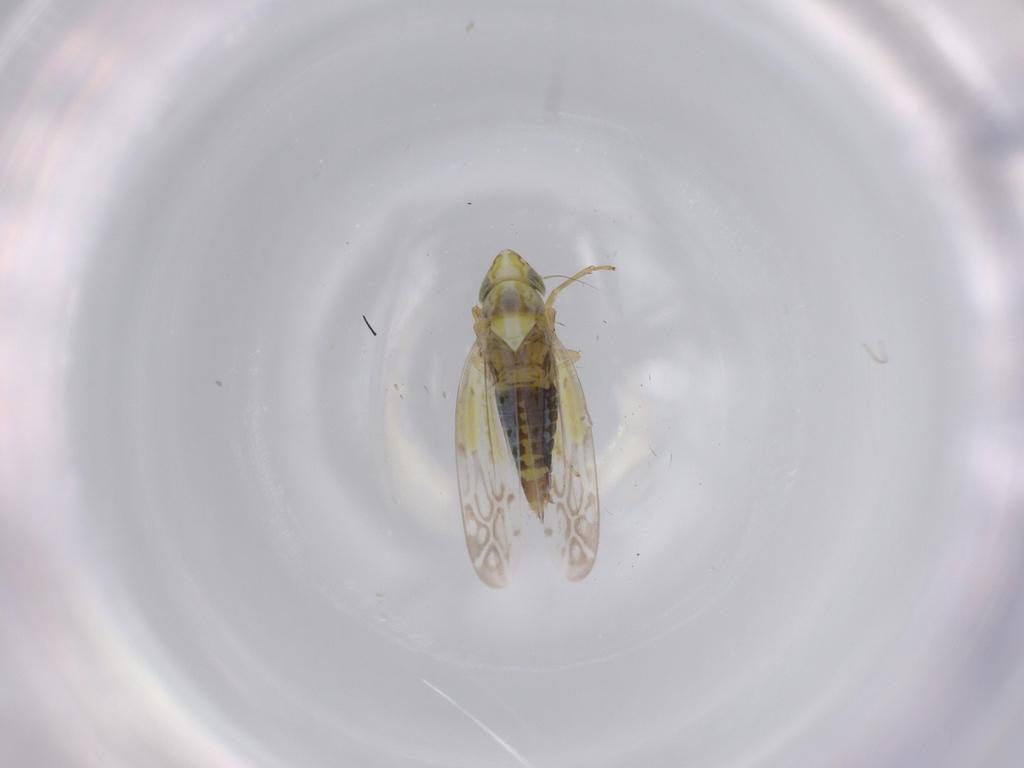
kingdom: Animalia
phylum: Arthropoda
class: Insecta
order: Hemiptera
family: Cicadellidae
